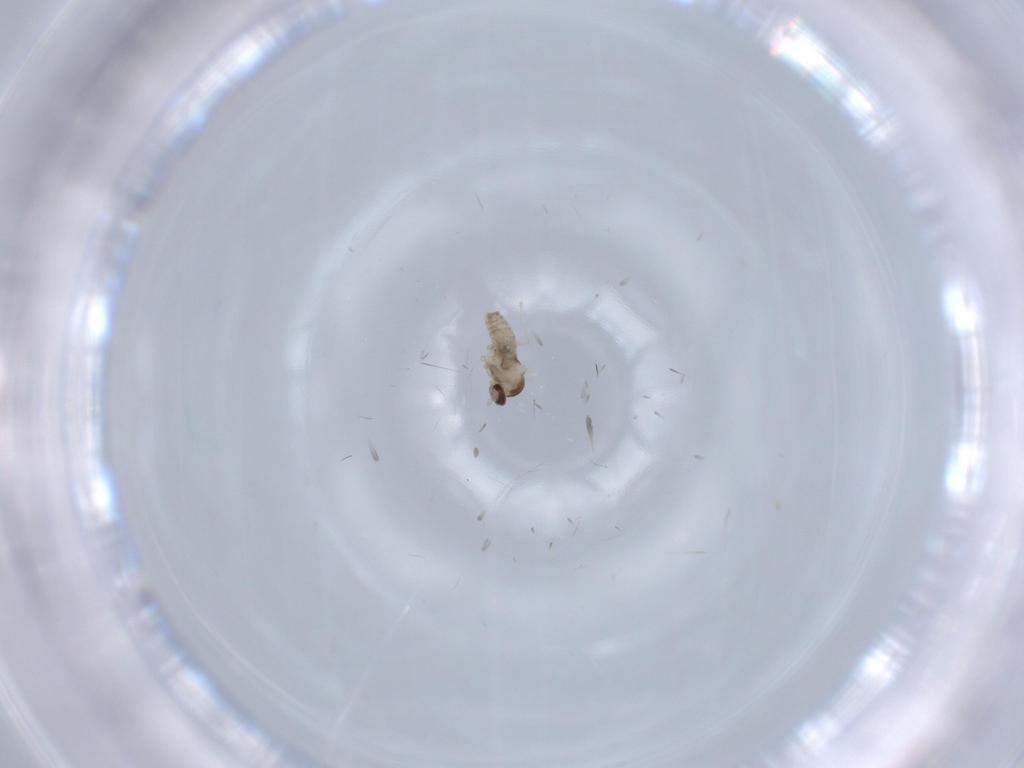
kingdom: Animalia
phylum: Arthropoda
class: Insecta
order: Diptera
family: Cecidomyiidae
